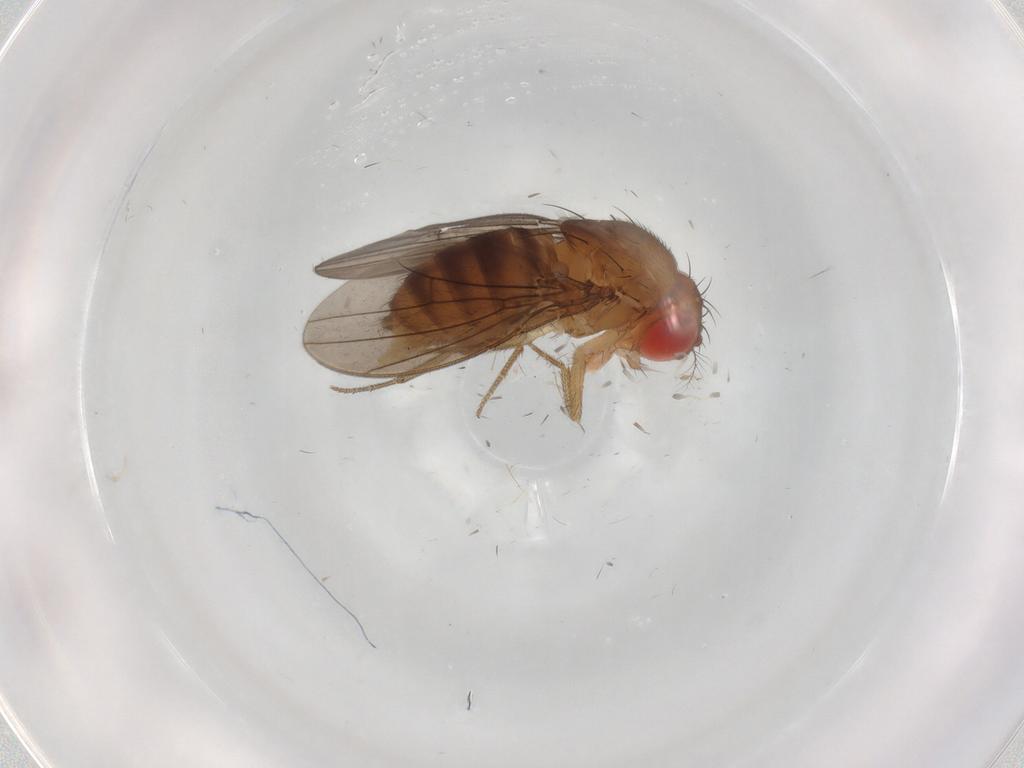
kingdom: Animalia
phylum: Arthropoda
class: Insecta
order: Diptera
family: Drosophilidae
